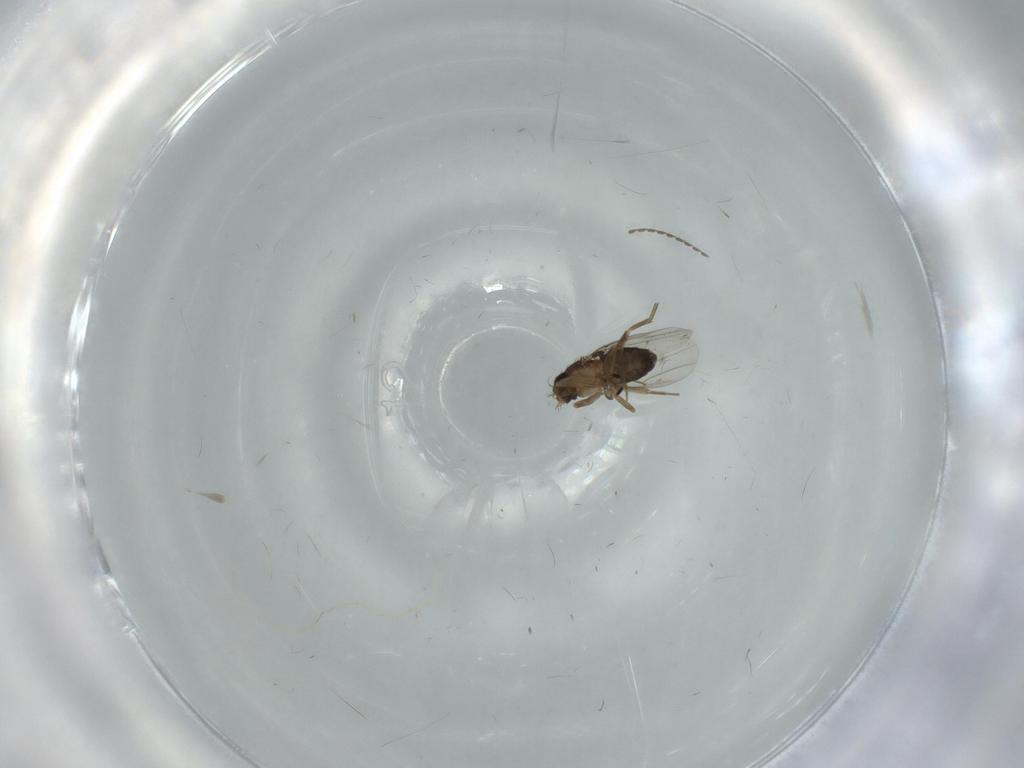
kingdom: Animalia
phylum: Arthropoda
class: Insecta
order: Diptera
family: Phoridae
